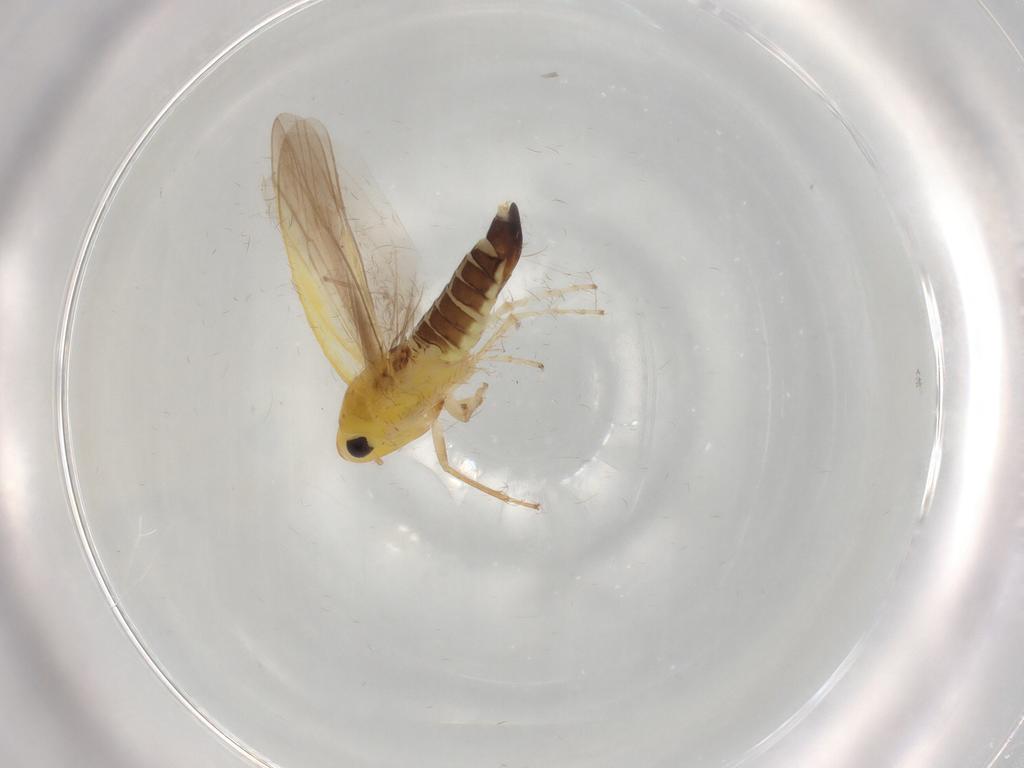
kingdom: Animalia
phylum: Arthropoda
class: Insecta
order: Hemiptera
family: Cicadellidae
